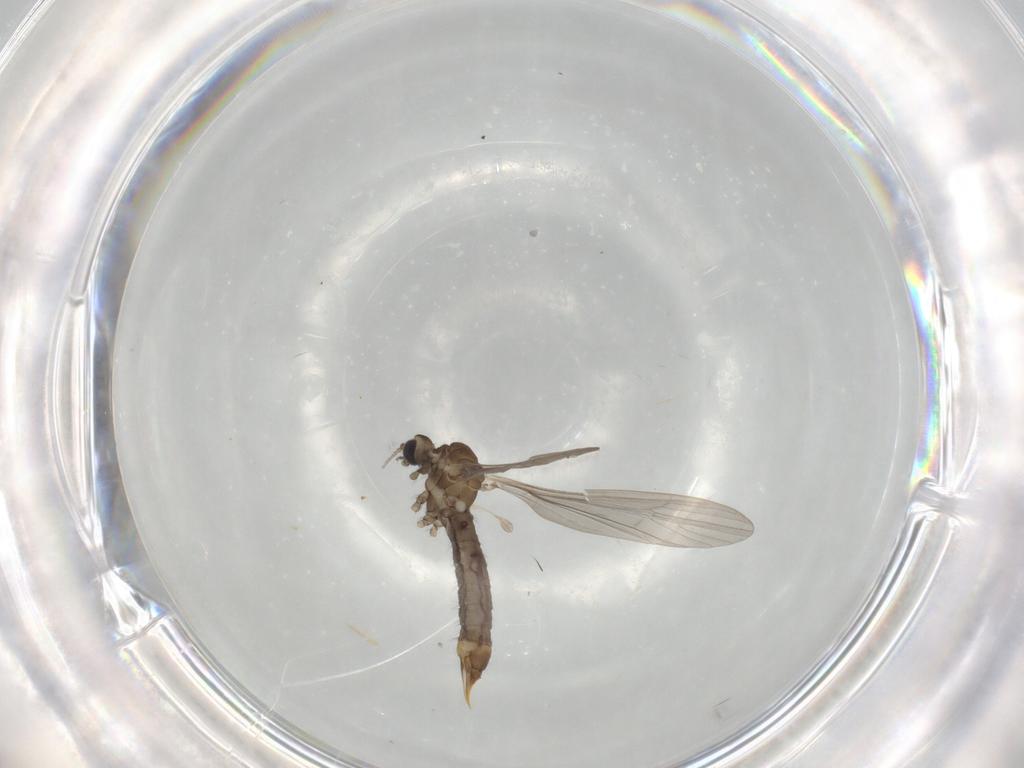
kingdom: Animalia
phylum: Arthropoda
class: Insecta
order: Diptera
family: Limoniidae
